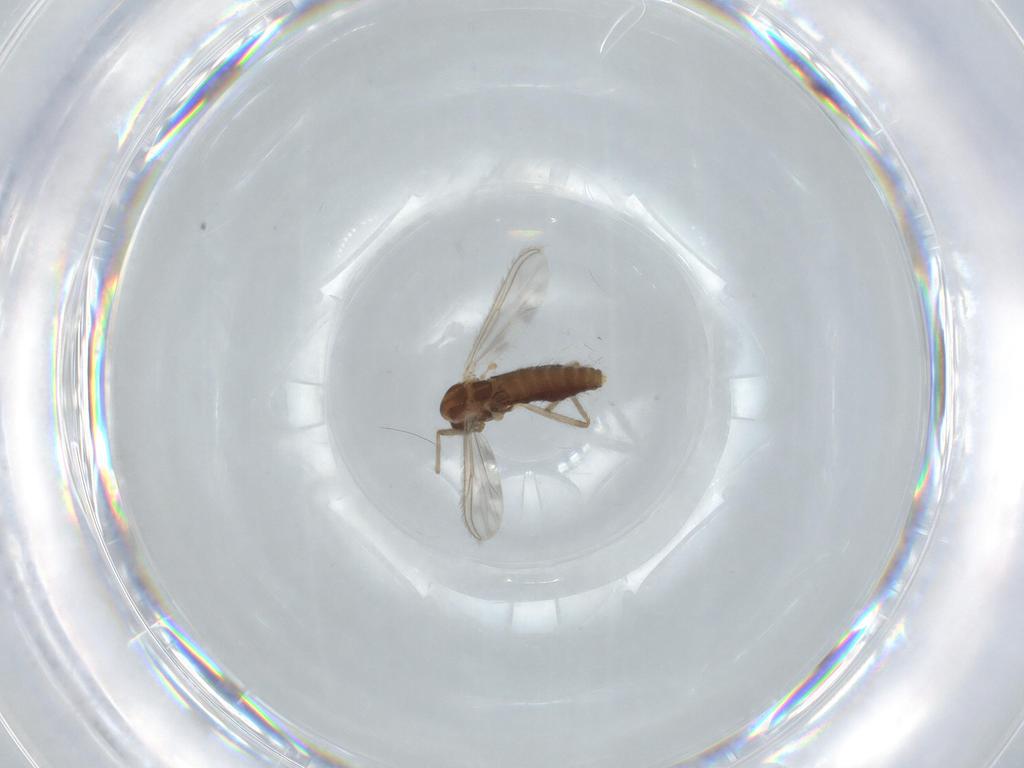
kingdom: Animalia
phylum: Arthropoda
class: Insecta
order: Diptera
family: Chironomidae
